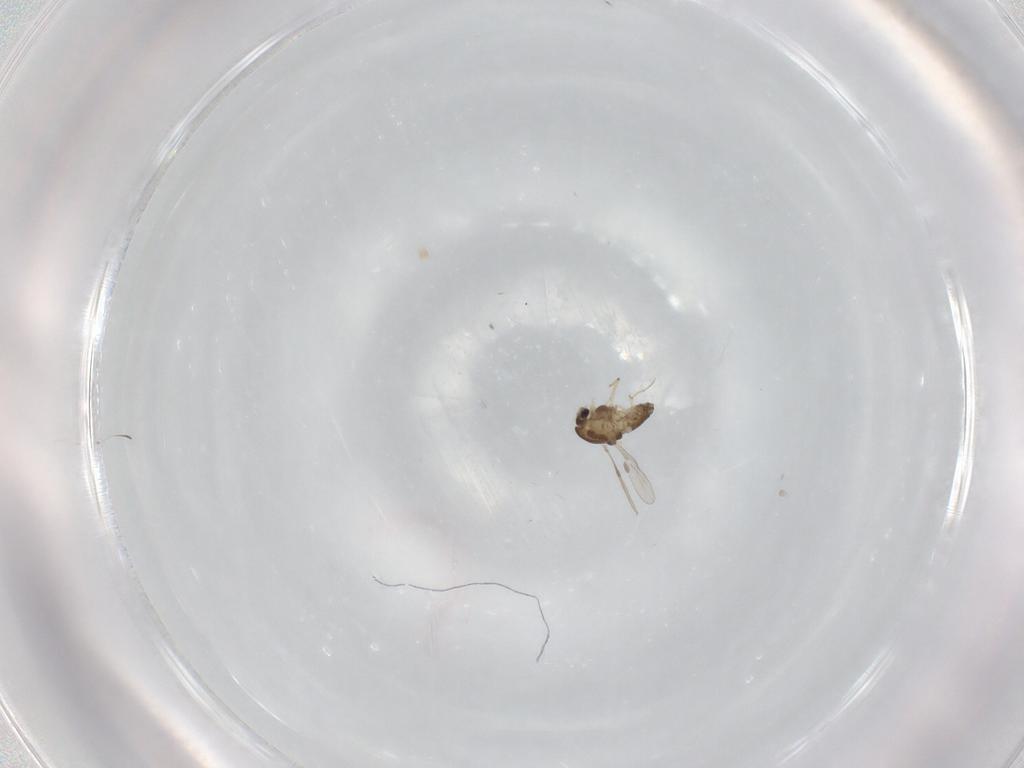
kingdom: Animalia
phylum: Arthropoda
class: Insecta
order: Diptera
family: Chironomidae
